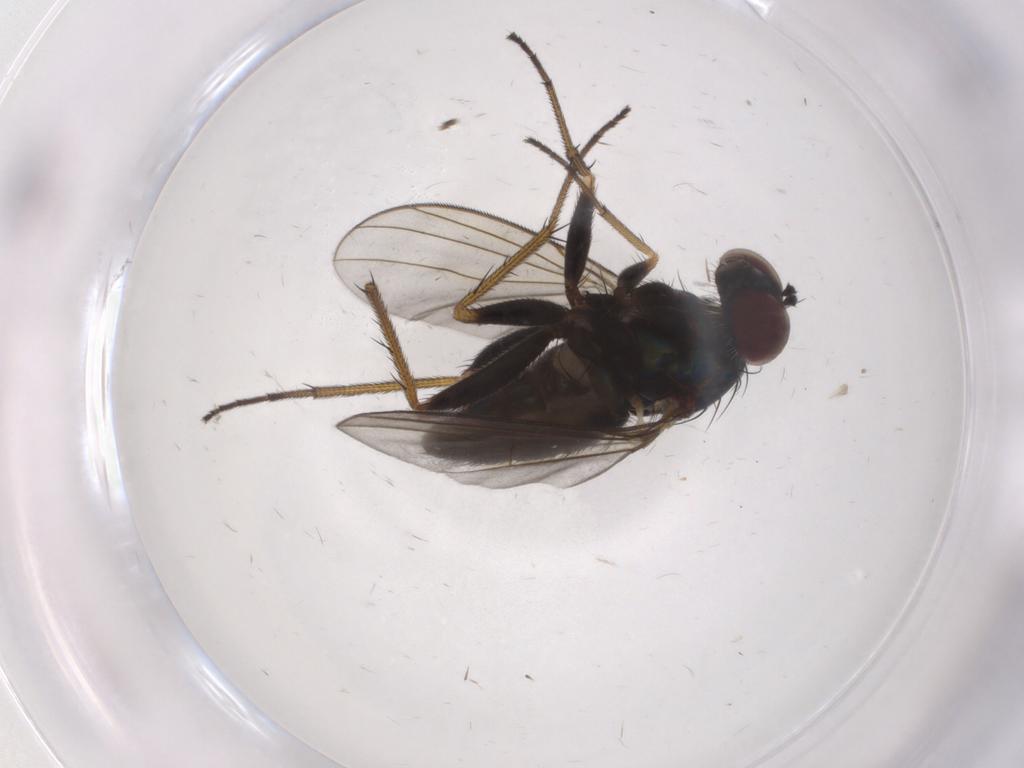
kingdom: Animalia
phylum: Arthropoda
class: Insecta
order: Diptera
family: Dolichopodidae
